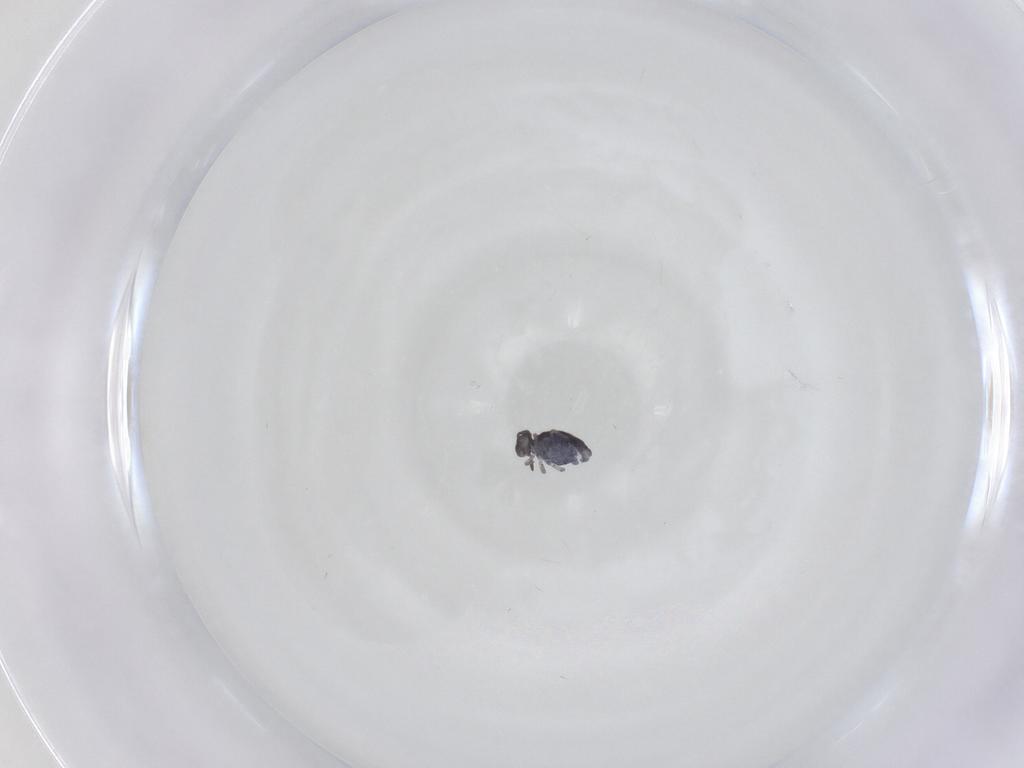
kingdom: Animalia
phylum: Arthropoda
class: Collembola
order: Symphypleona
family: Katiannidae
